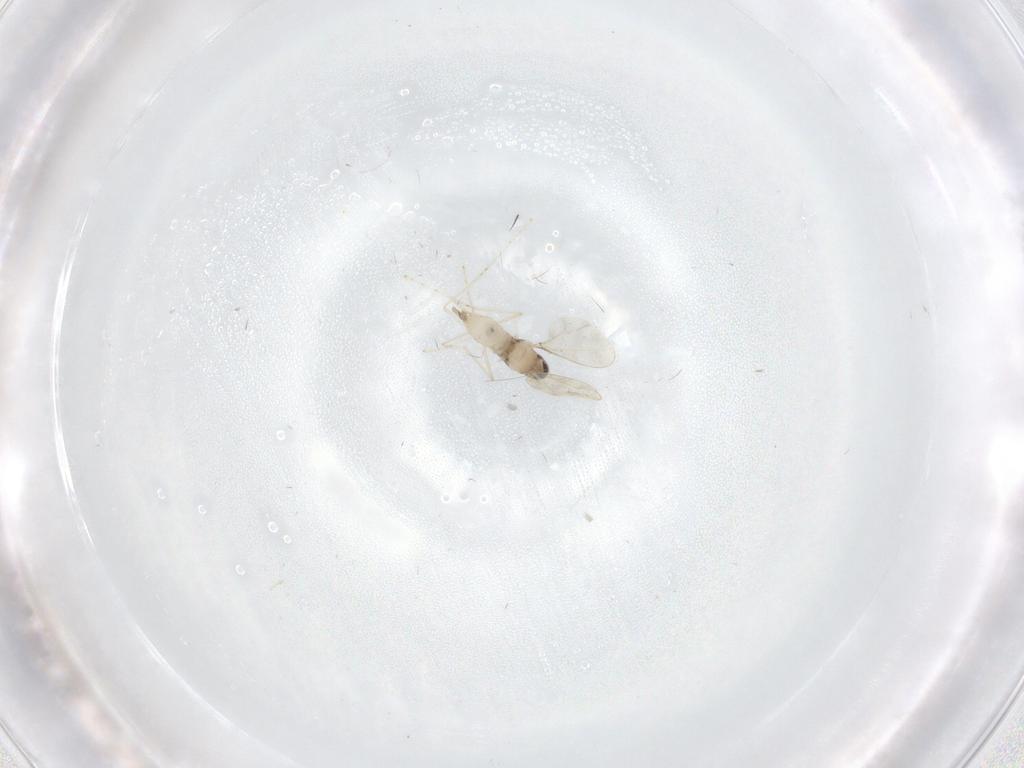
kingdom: Animalia
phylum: Arthropoda
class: Insecta
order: Diptera
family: Cecidomyiidae
